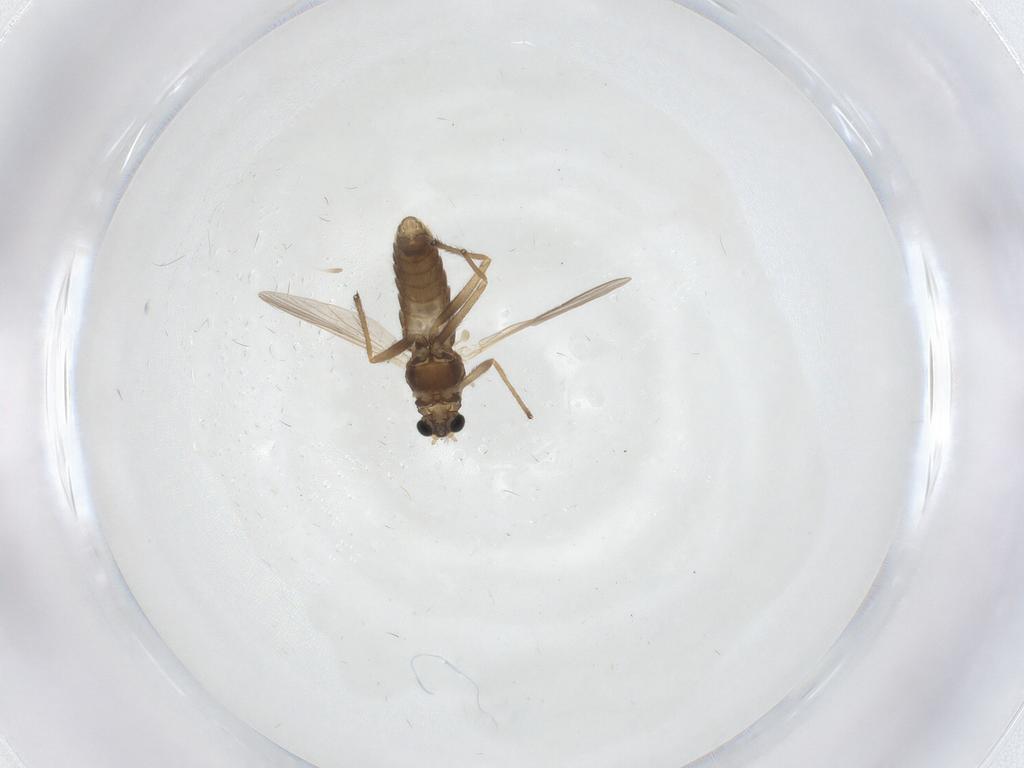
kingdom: Animalia
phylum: Arthropoda
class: Insecta
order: Diptera
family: Chironomidae
